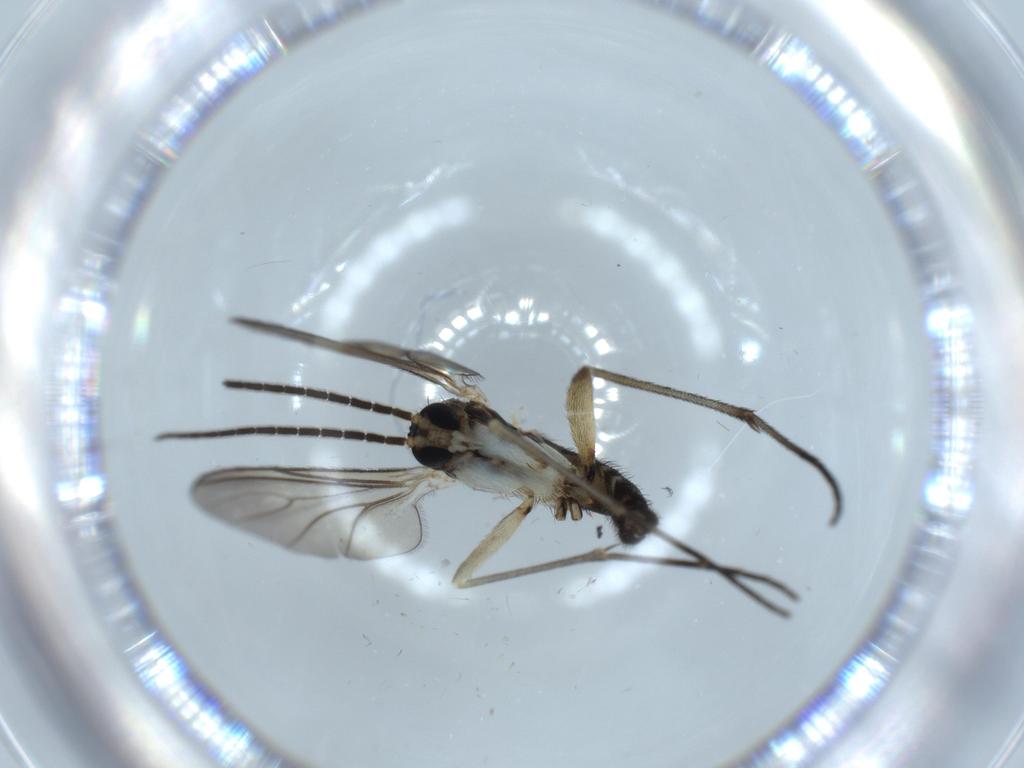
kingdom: Animalia
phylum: Arthropoda
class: Insecta
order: Diptera
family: Sciaridae
